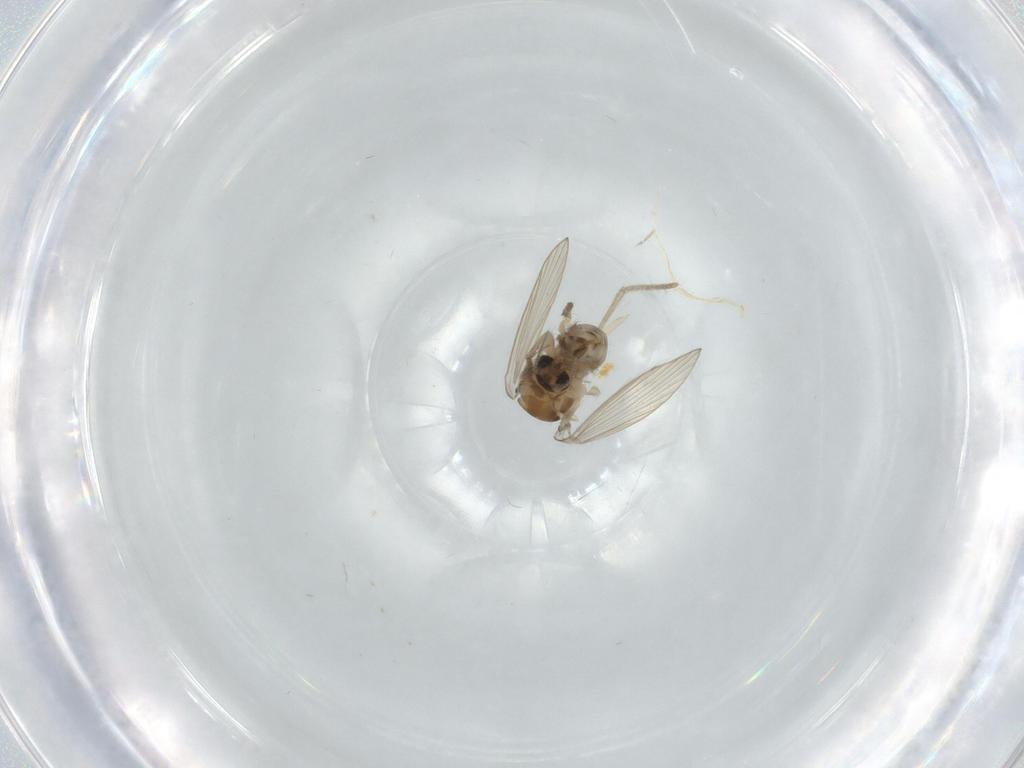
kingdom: Animalia
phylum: Arthropoda
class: Insecta
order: Diptera
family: Psychodidae
